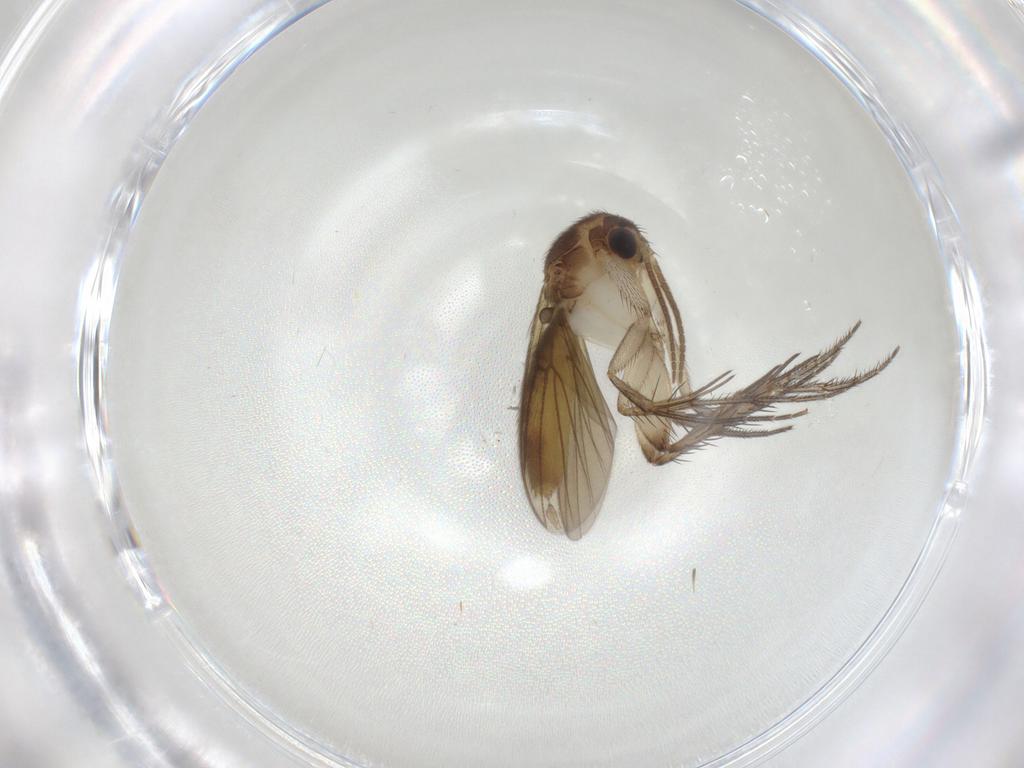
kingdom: Animalia
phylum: Arthropoda
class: Insecta
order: Diptera
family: Mycetophilidae
